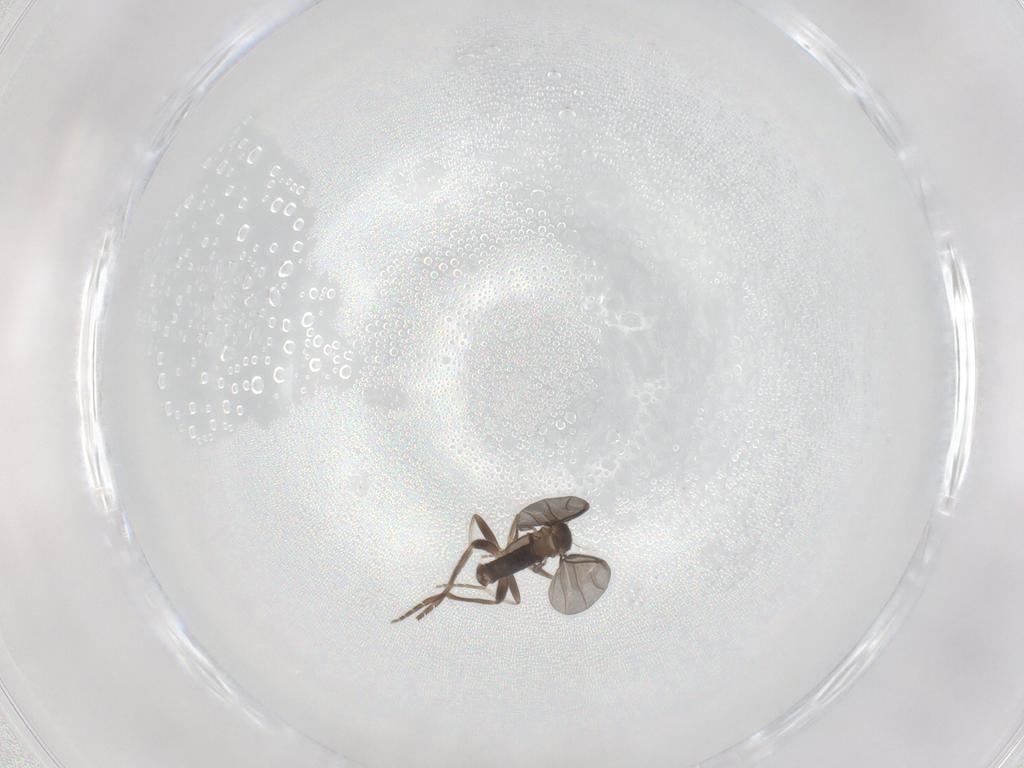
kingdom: Animalia
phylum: Arthropoda
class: Insecta
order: Diptera
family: Phoridae
